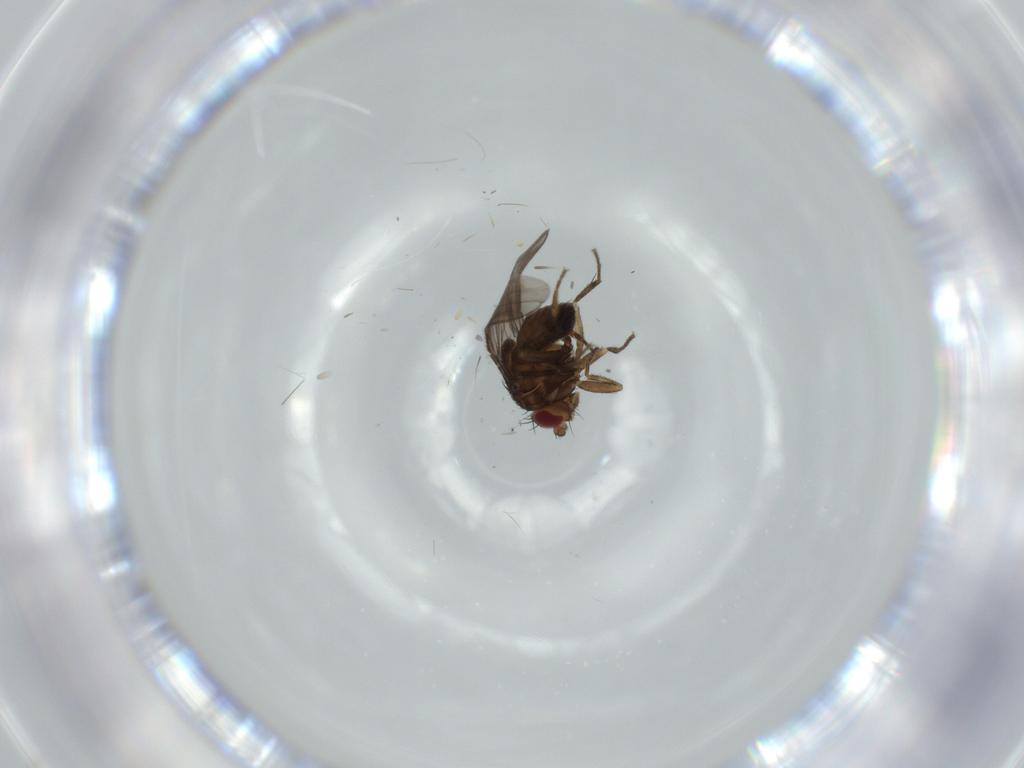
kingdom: Animalia
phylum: Arthropoda
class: Insecta
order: Diptera
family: Sphaeroceridae
